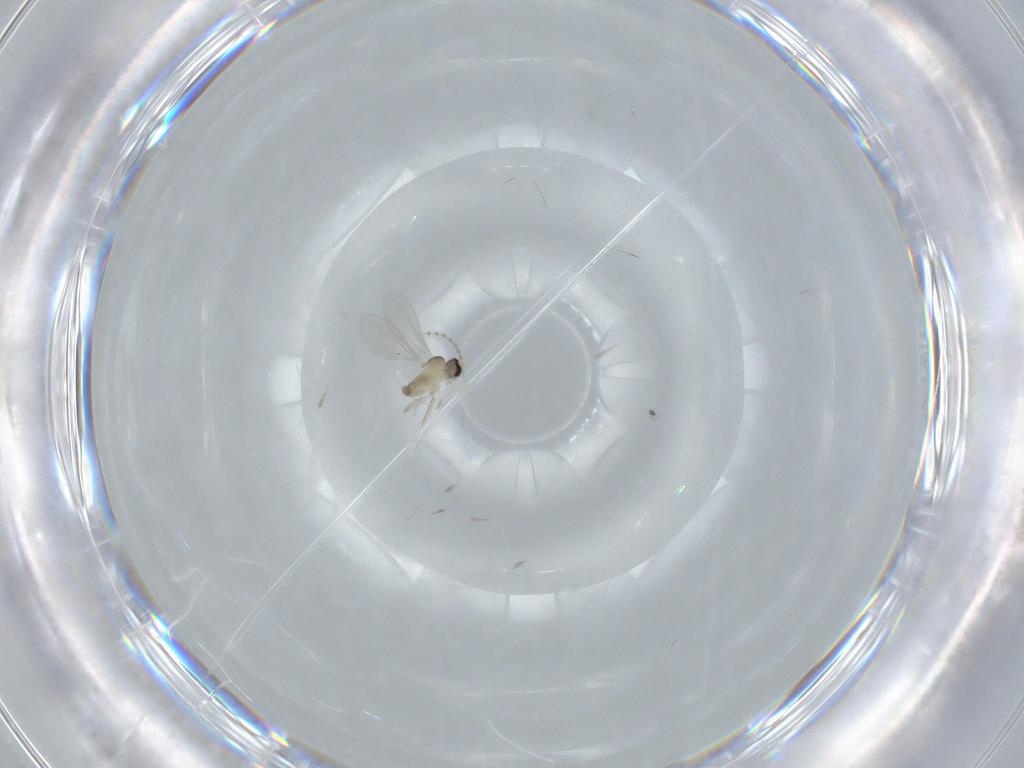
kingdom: Animalia
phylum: Arthropoda
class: Insecta
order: Diptera
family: Cecidomyiidae
